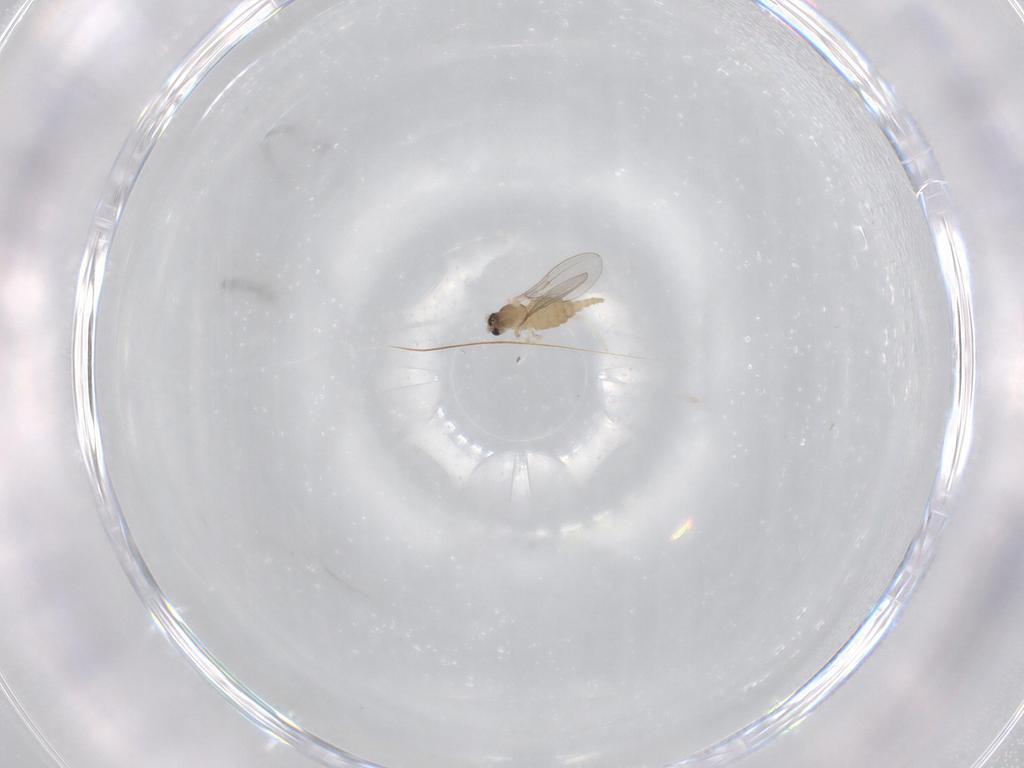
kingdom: Animalia
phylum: Arthropoda
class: Insecta
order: Diptera
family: Cecidomyiidae
